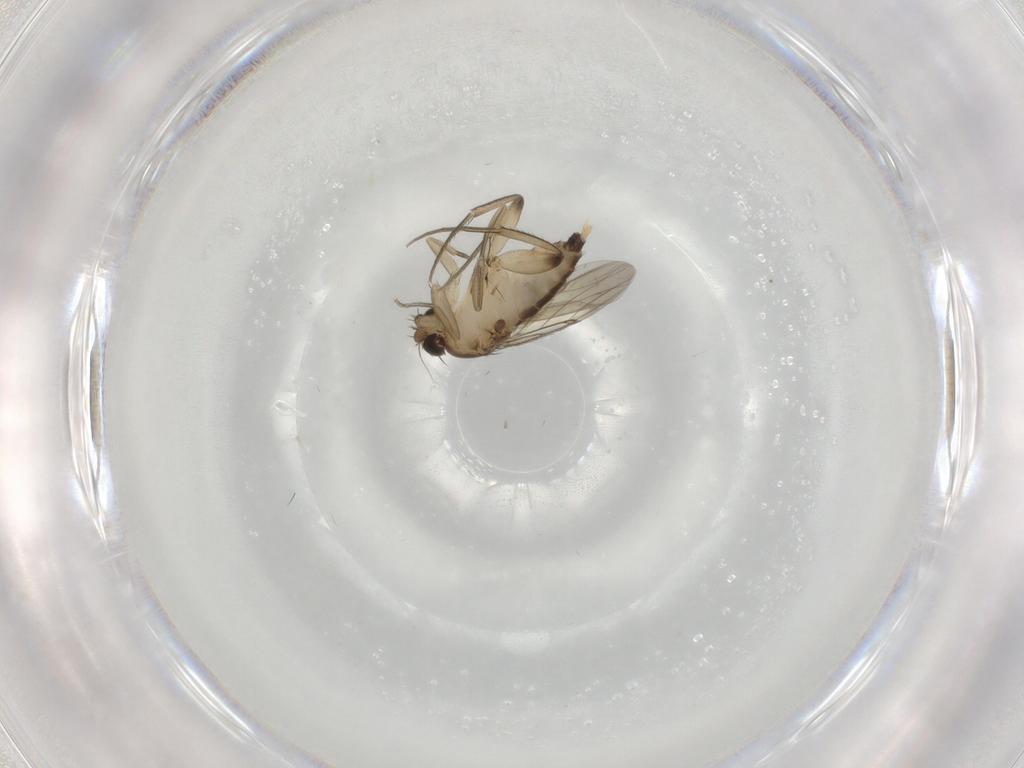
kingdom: Animalia
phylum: Arthropoda
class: Insecta
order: Diptera
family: Phoridae
